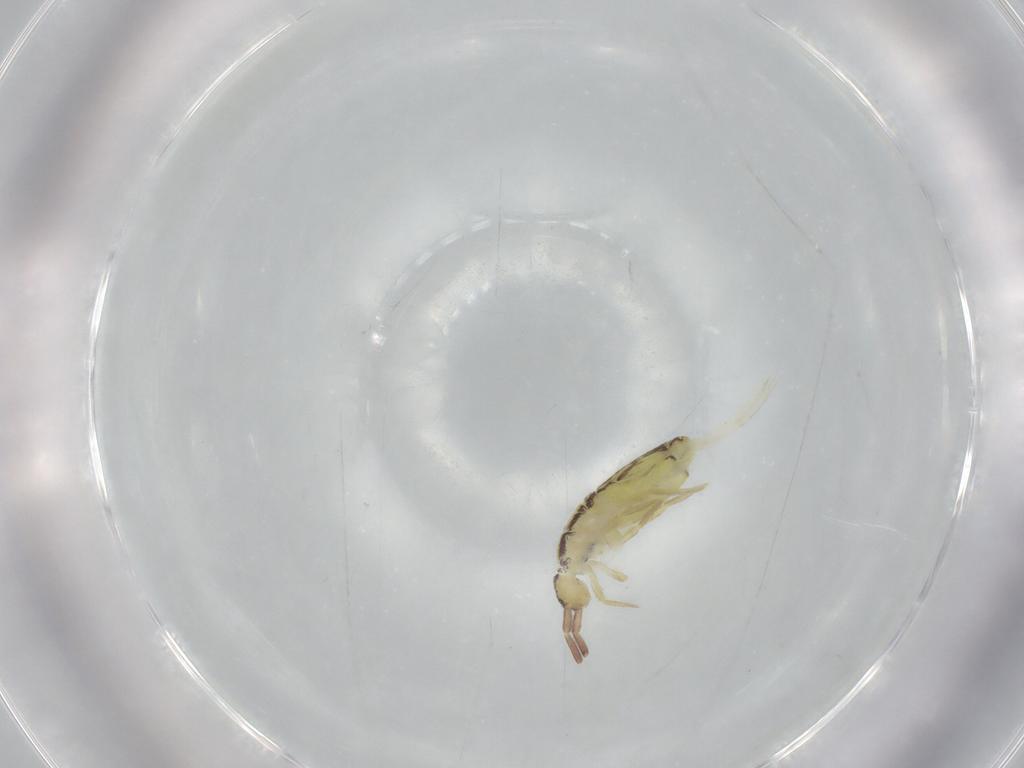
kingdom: Animalia
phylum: Arthropoda
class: Collembola
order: Entomobryomorpha
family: Entomobryidae
